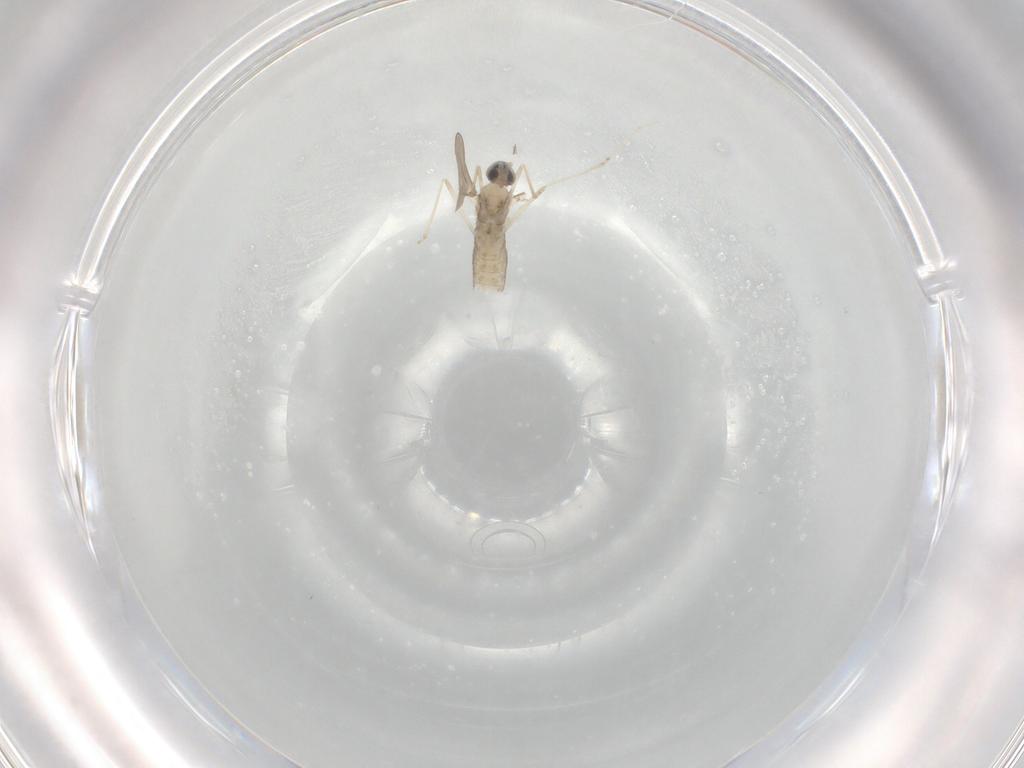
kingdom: Animalia
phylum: Arthropoda
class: Insecta
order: Diptera
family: Cecidomyiidae
